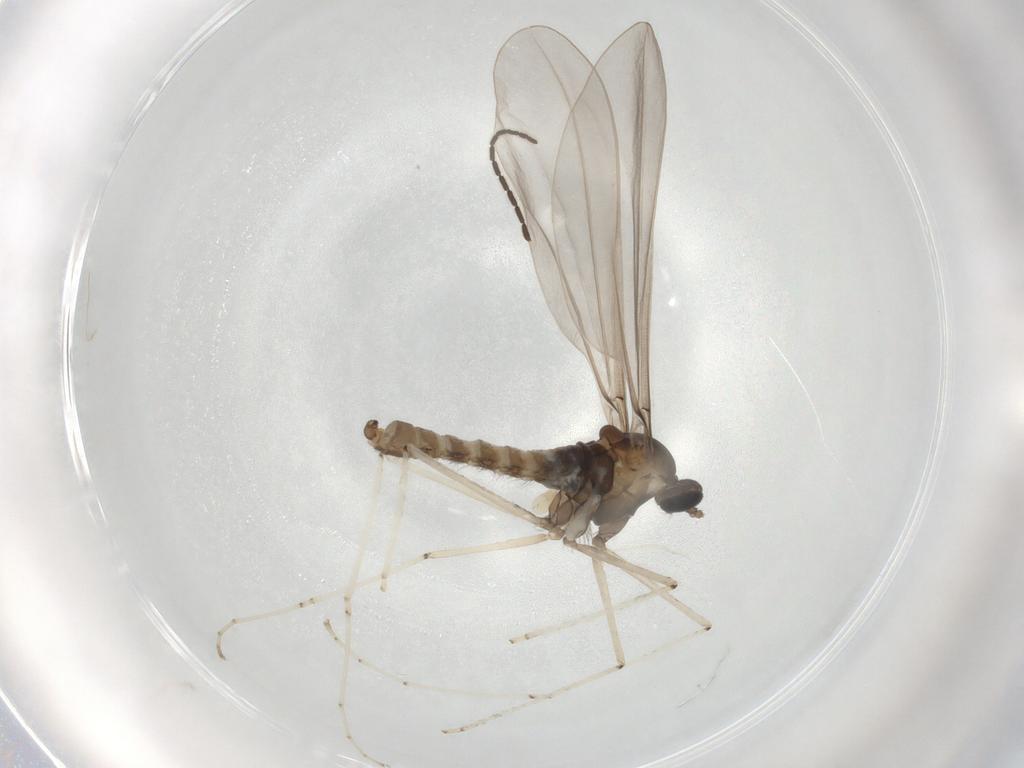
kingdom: Animalia
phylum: Arthropoda
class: Insecta
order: Diptera
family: Cecidomyiidae
